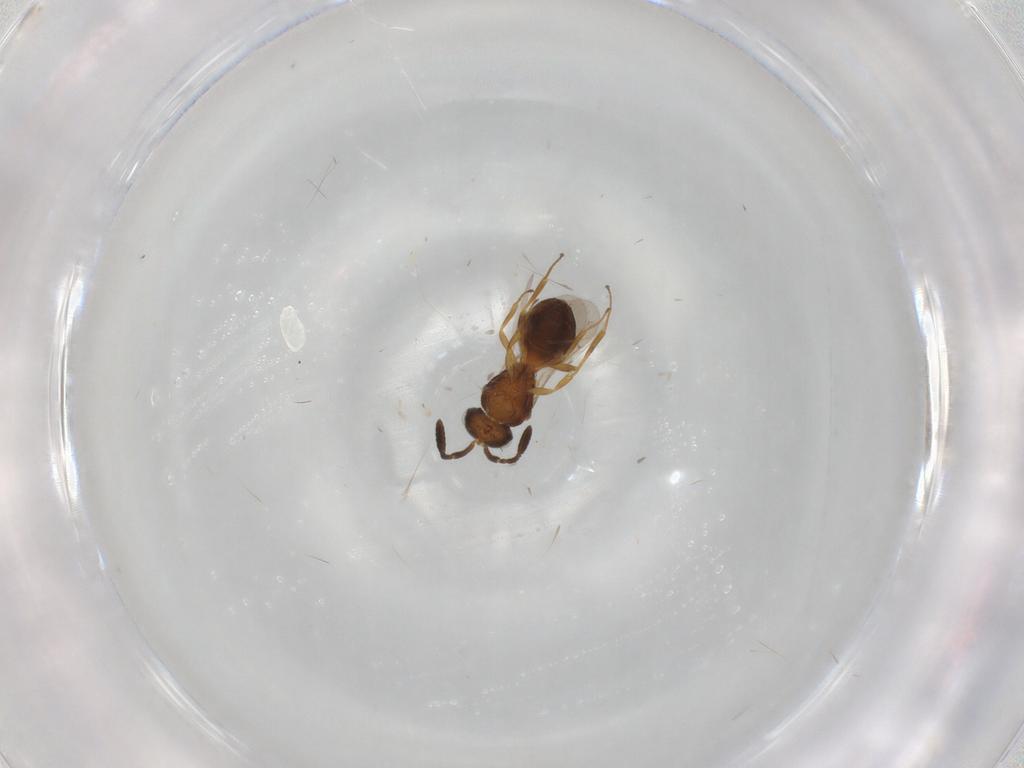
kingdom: Animalia
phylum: Arthropoda
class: Insecta
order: Hymenoptera
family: Scelionidae
